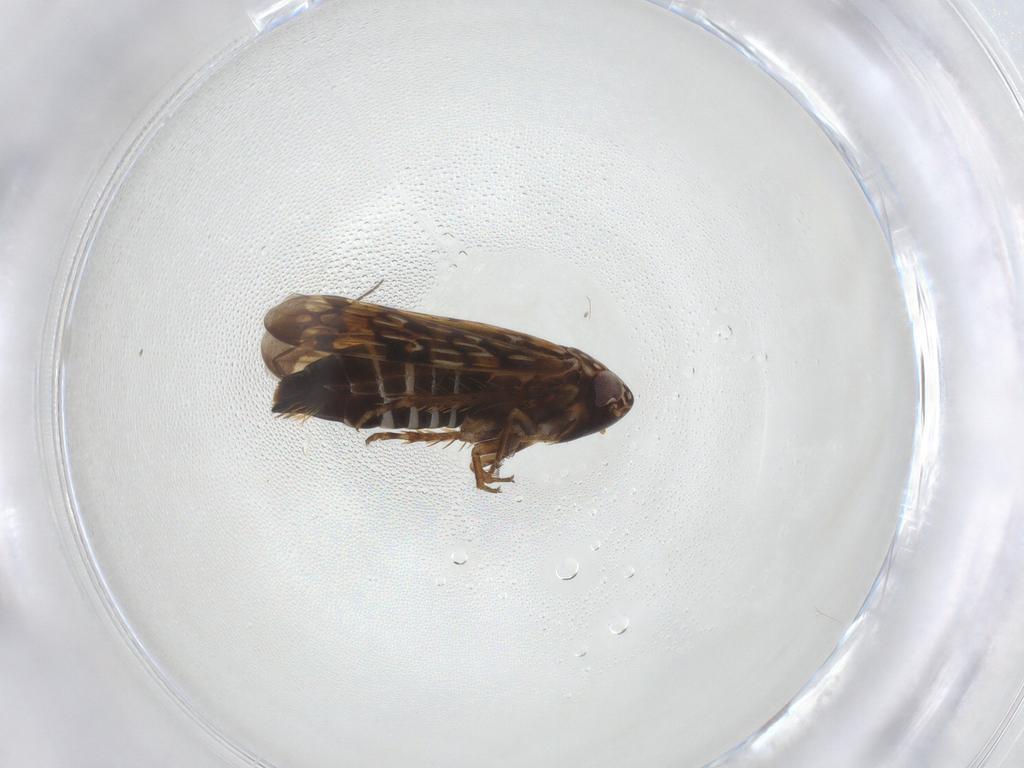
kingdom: Animalia
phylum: Arthropoda
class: Insecta
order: Hemiptera
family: Cicadellidae
